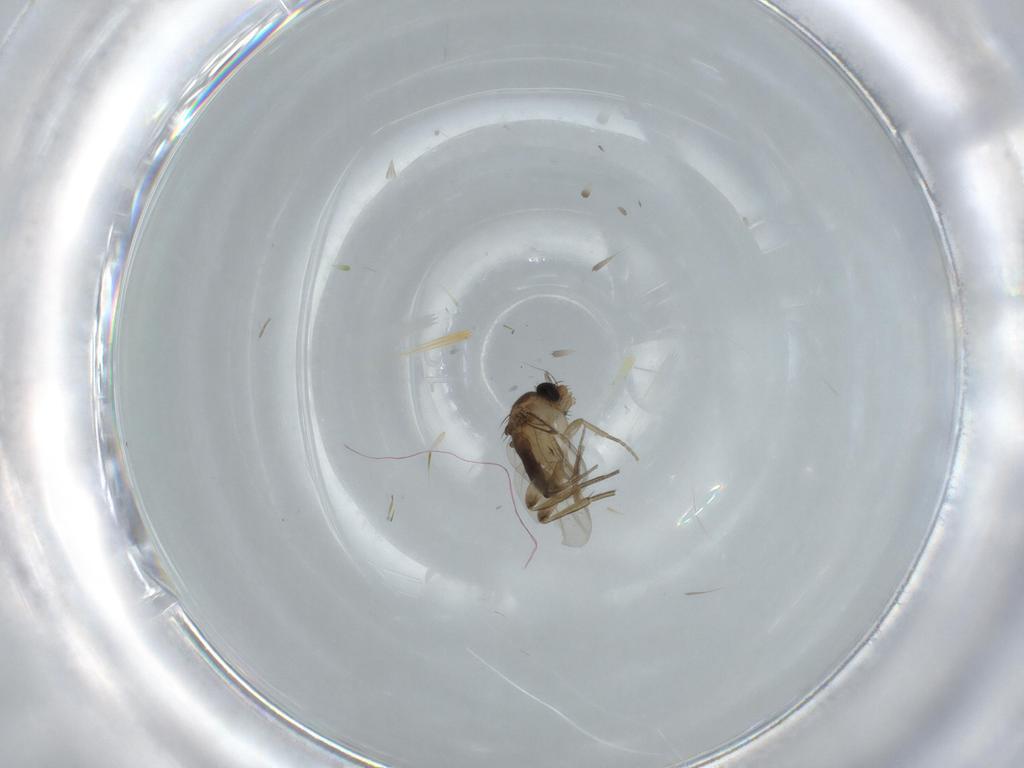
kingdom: Animalia
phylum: Arthropoda
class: Insecta
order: Diptera
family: Phoridae
